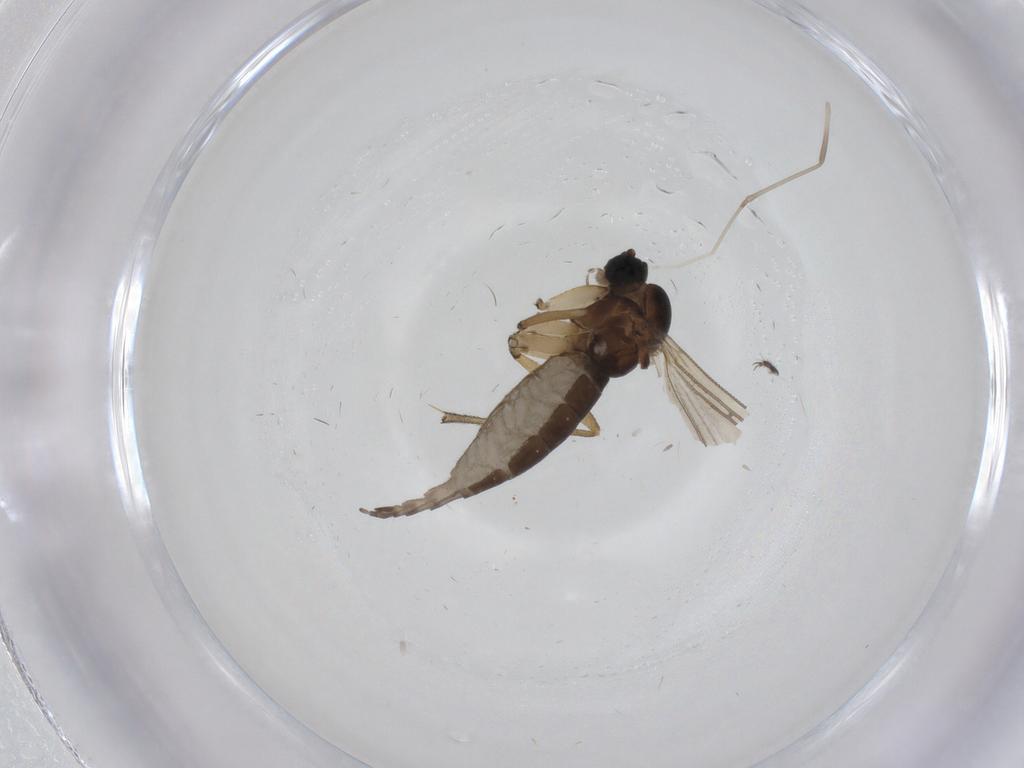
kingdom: Animalia
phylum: Arthropoda
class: Insecta
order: Diptera
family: Sciaridae
